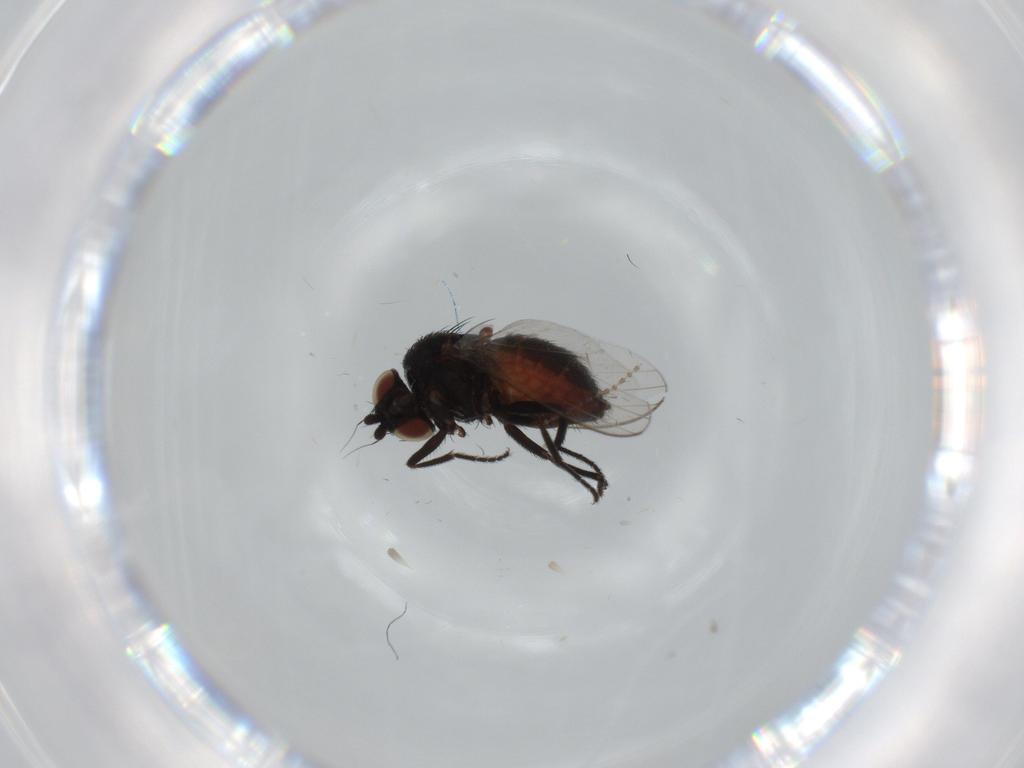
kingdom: Animalia
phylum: Arthropoda
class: Insecta
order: Diptera
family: Milichiidae
